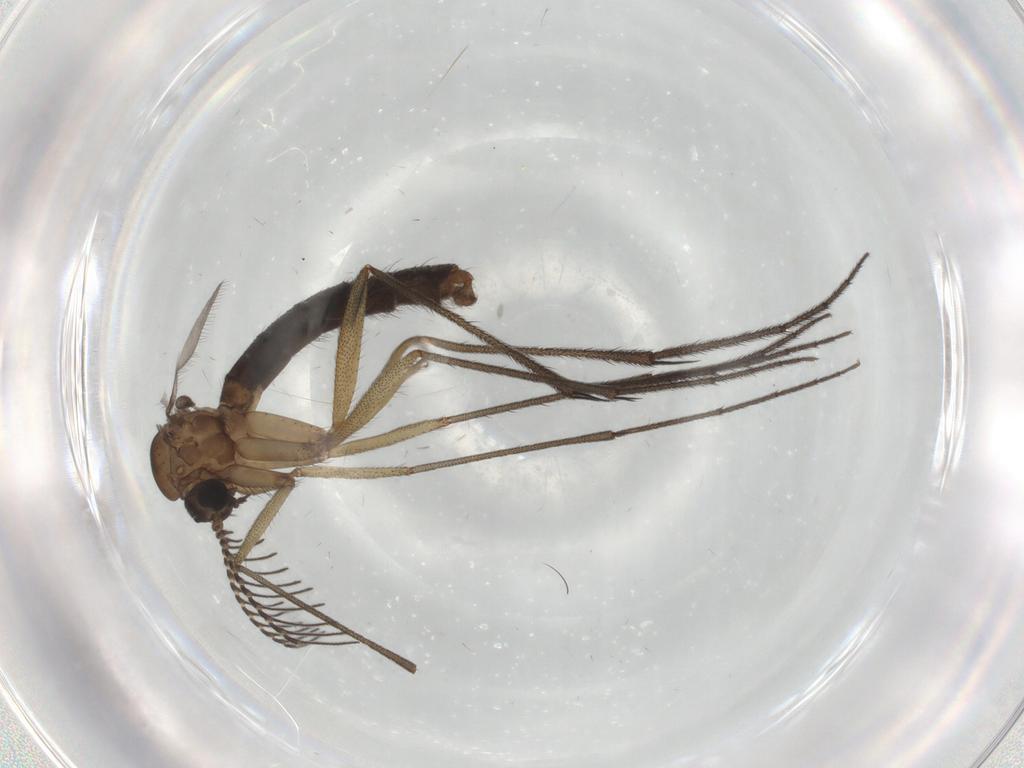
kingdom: Animalia
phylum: Arthropoda
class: Insecta
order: Diptera
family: Ditomyiidae
